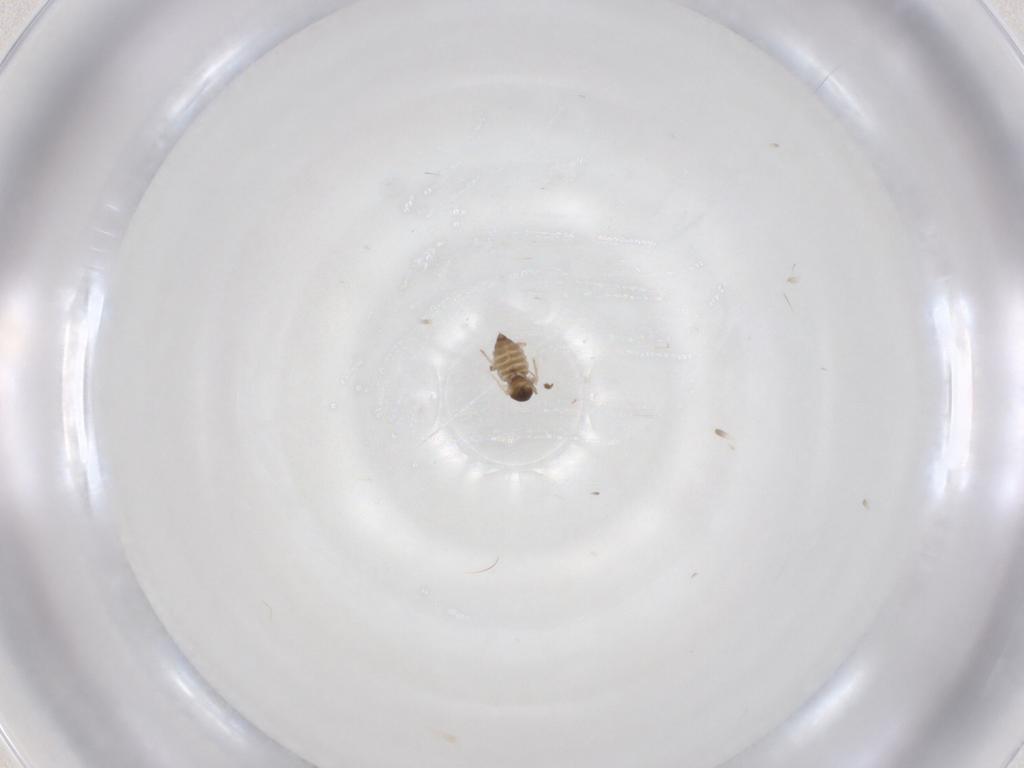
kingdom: Animalia
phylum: Arthropoda
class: Insecta
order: Diptera
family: Cecidomyiidae
